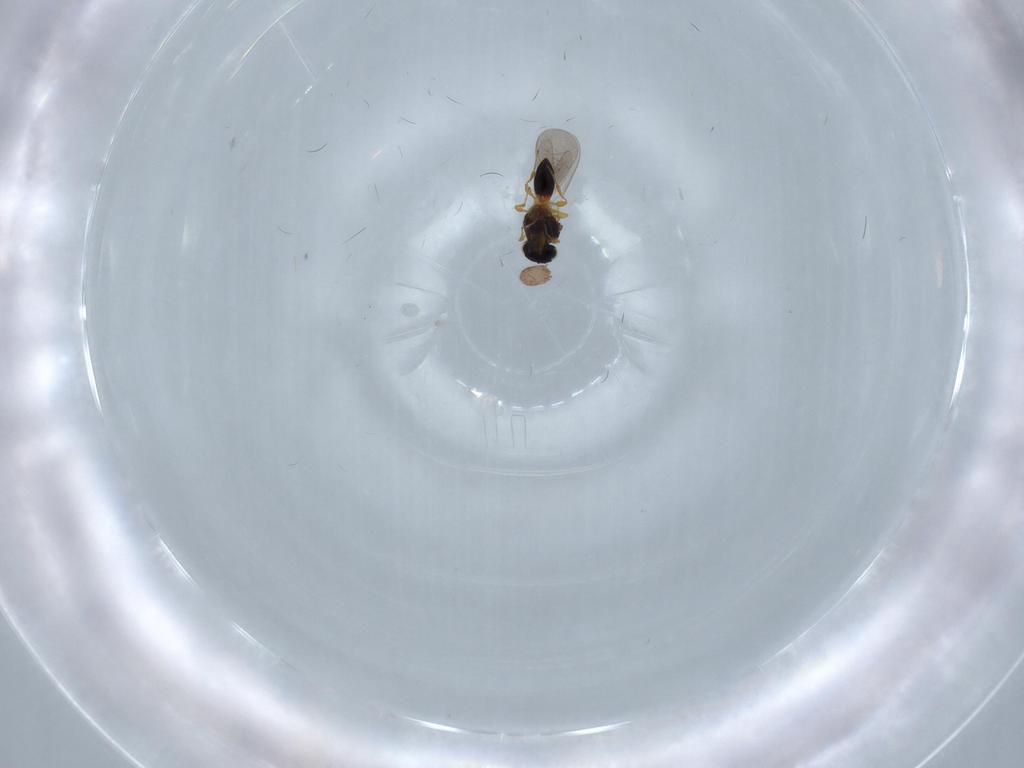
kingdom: Animalia
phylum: Arthropoda
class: Insecta
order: Hymenoptera
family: Platygastridae
